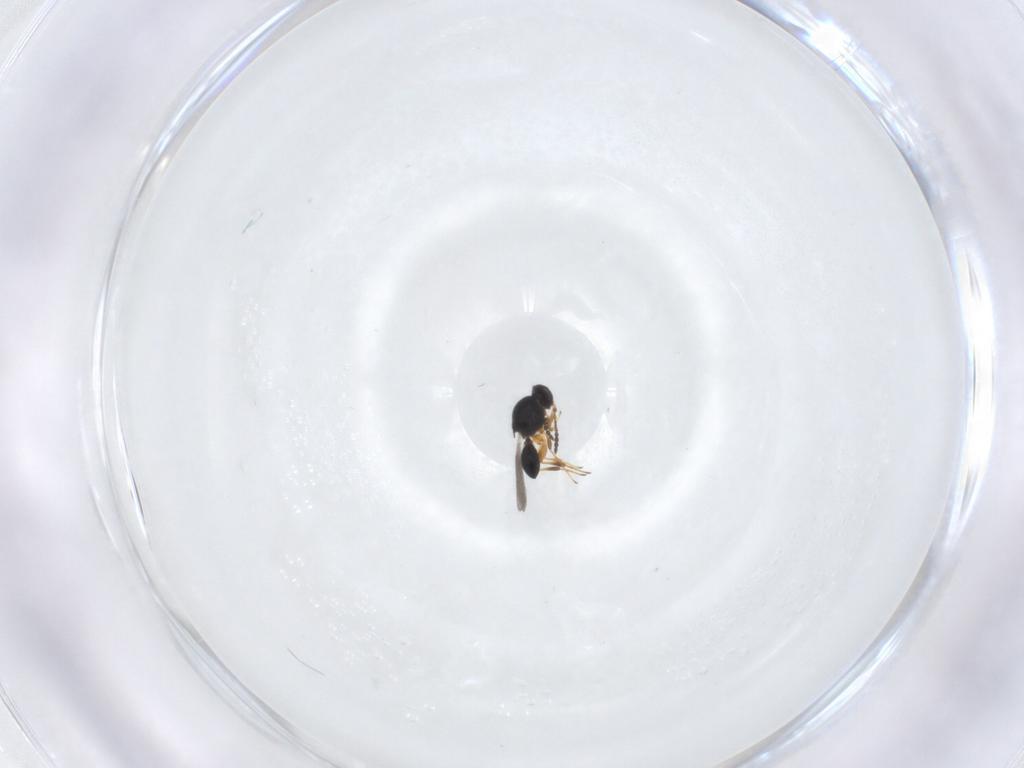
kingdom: Animalia
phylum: Arthropoda
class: Insecta
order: Hymenoptera
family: Platygastridae
